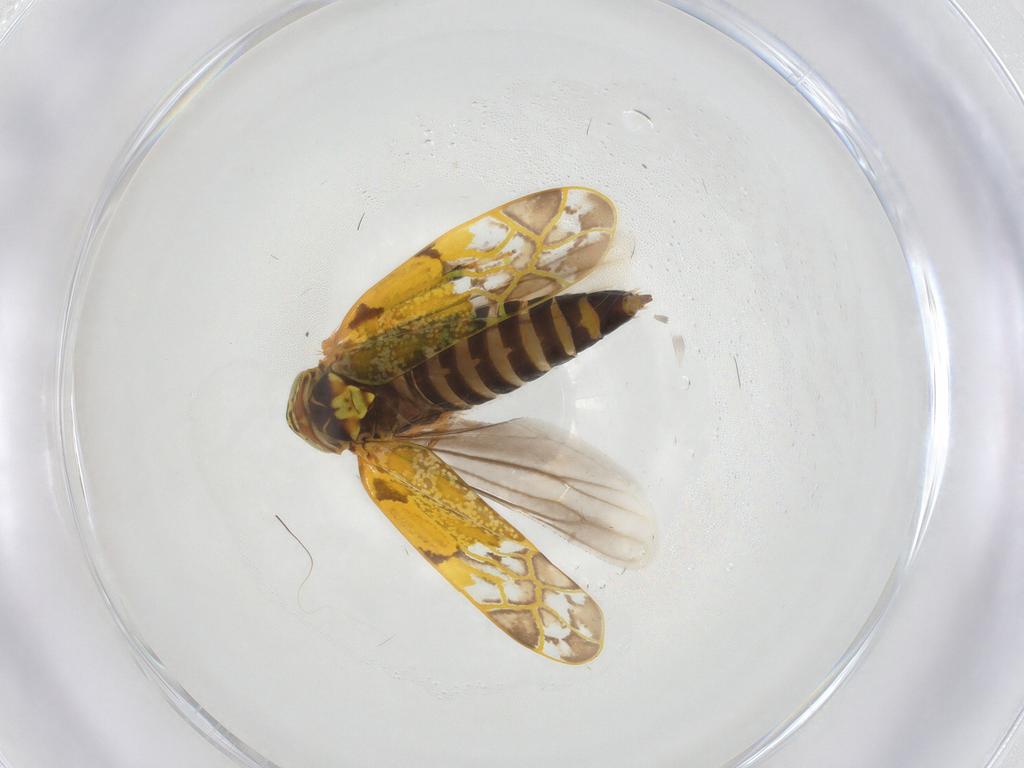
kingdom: Animalia
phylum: Arthropoda
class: Insecta
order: Hemiptera
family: Cicadellidae
